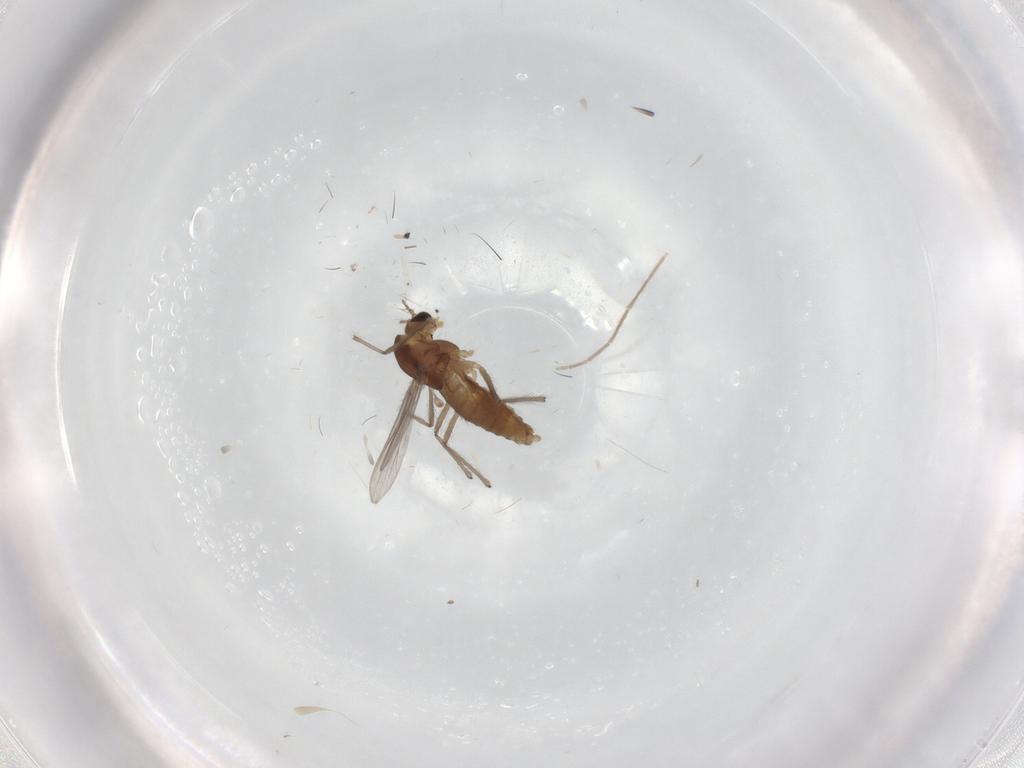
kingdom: Animalia
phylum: Arthropoda
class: Insecta
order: Diptera
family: Chironomidae
